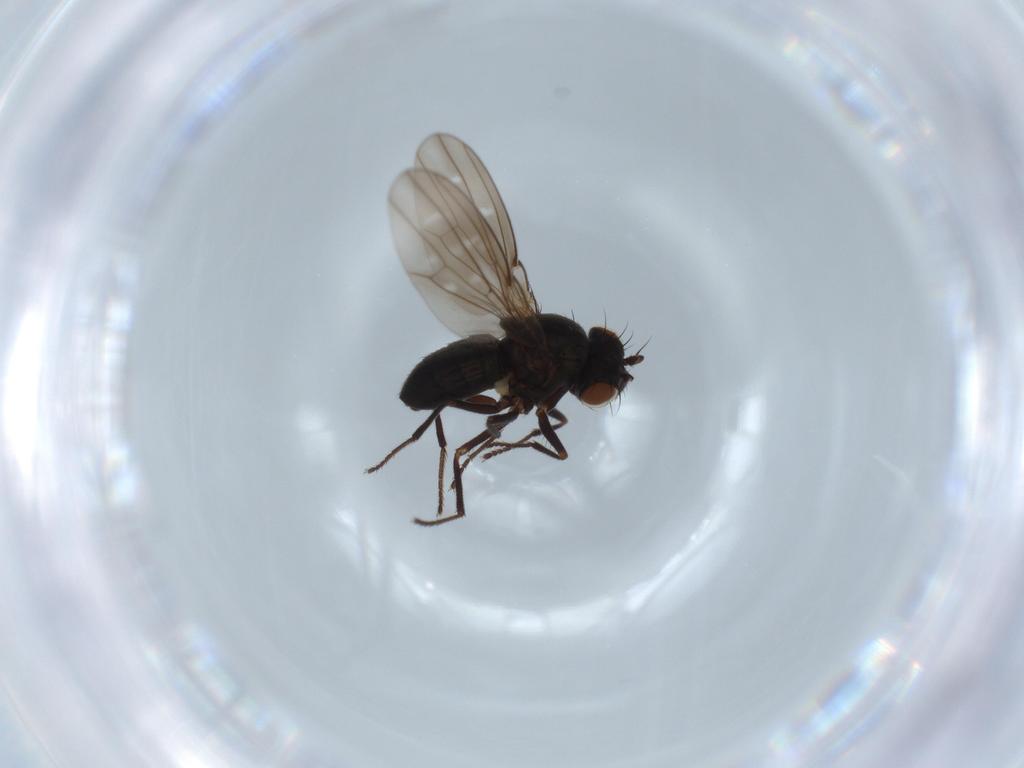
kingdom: Animalia
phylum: Arthropoda
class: Insecta
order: Diptera
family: Ephydridae
